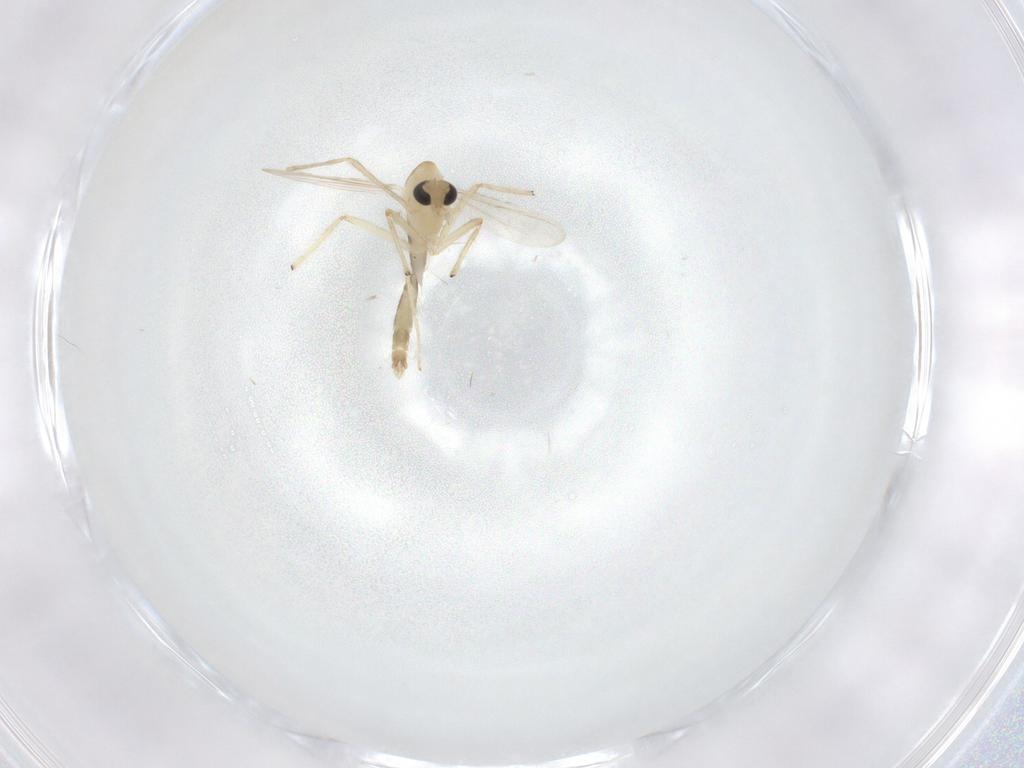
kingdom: Animalia
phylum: Arthropoda
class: Insecta
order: Diptera
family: Chironomidae
